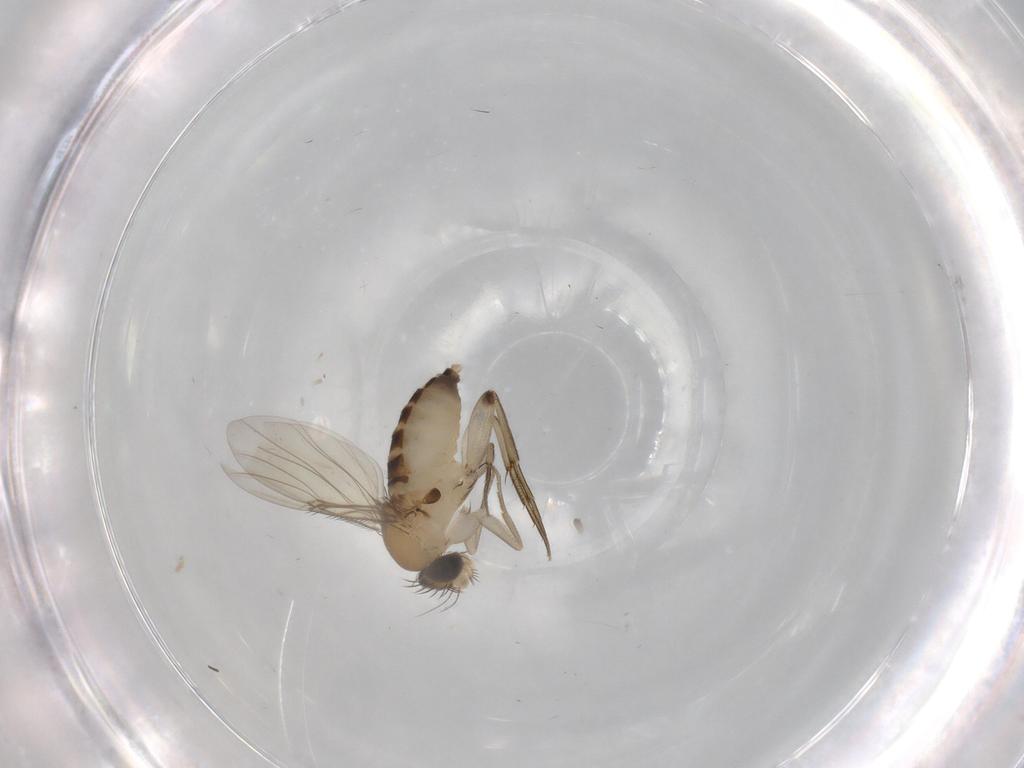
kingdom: Animalia
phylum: Arthropoda
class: Insecta
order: Diptera
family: Phoridae
